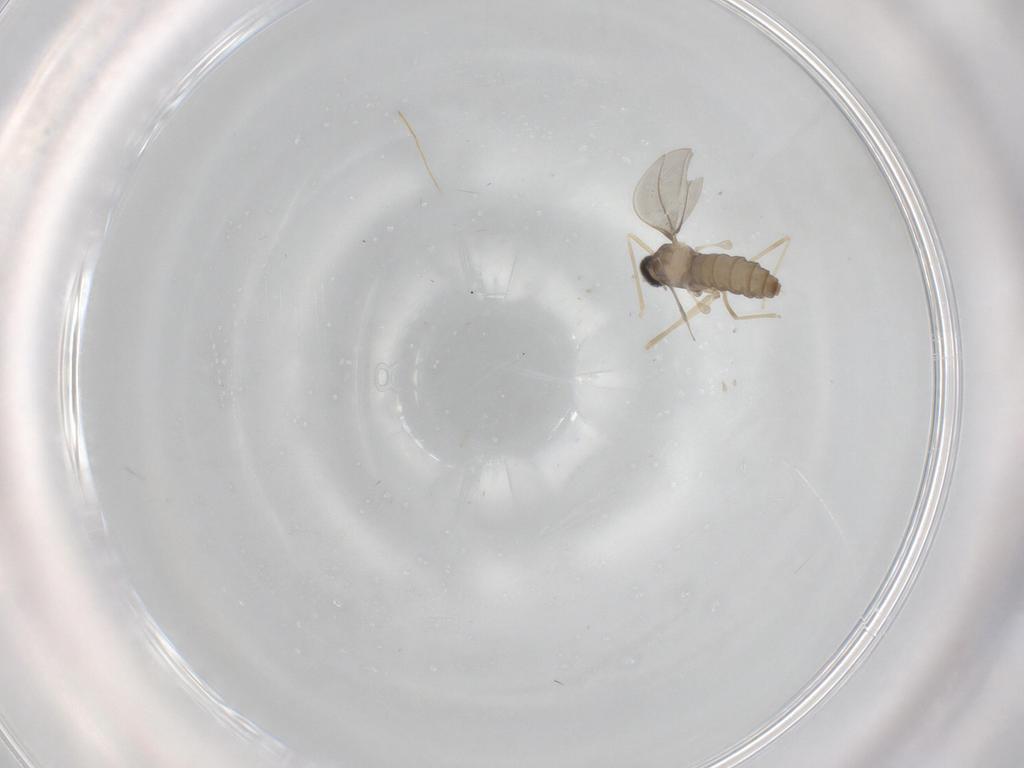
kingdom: Animalia
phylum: Arthropoda
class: Insecta
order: Diptera
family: Cecidomyiidae
